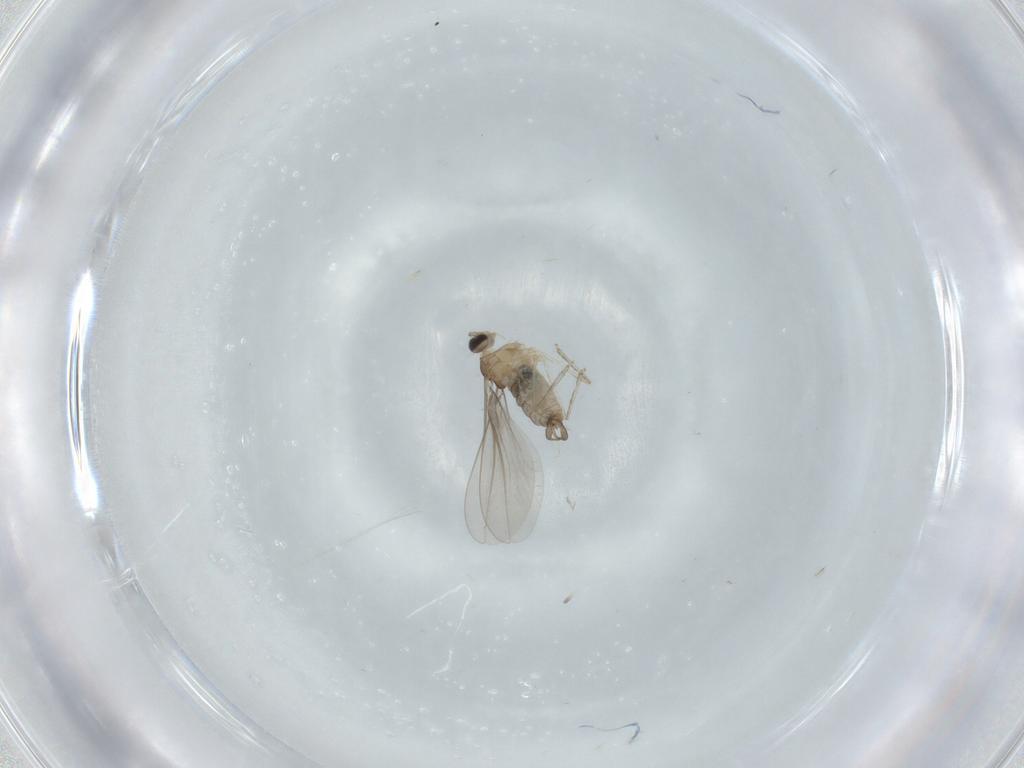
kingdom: Animalia
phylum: Arthropoda
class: Insecta
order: Diptera
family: Cecidomyiidae
